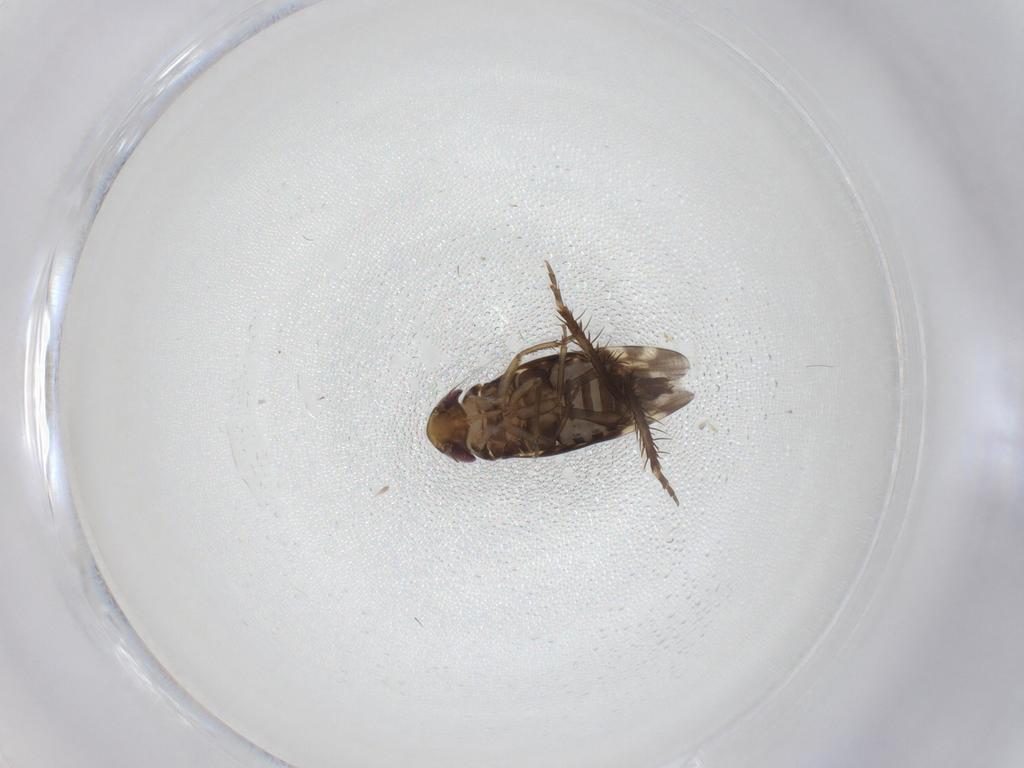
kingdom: Animalia
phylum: Arthropoda
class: Insecta
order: Hemiptera
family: Cicadellidae
